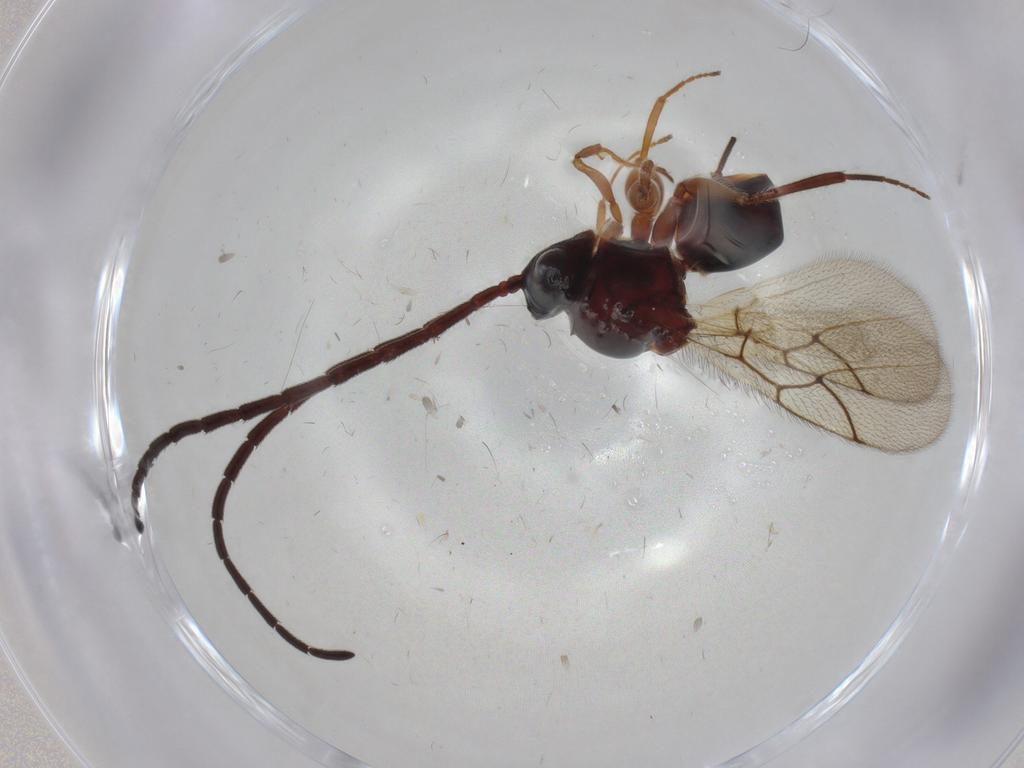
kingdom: Animalia
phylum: Arthropoda
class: Insecta
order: Hymenoptera
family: Figitidae
